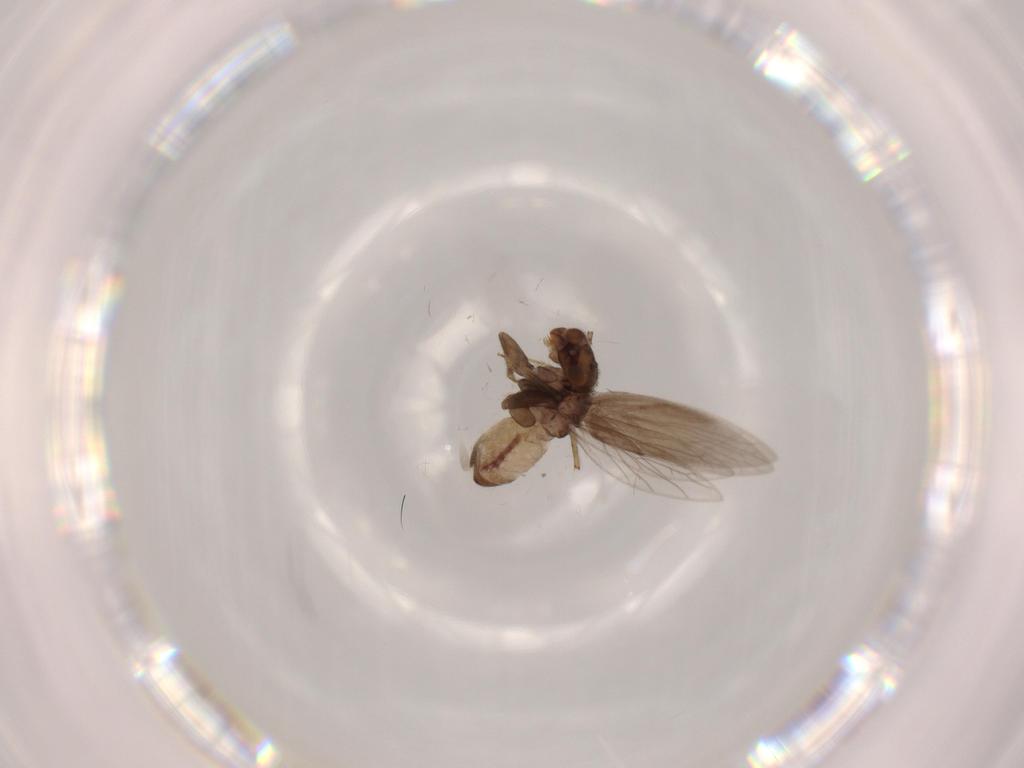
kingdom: Animalia
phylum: Arthropoda
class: Insecta
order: Psocodea
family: Lepidopsocidae
